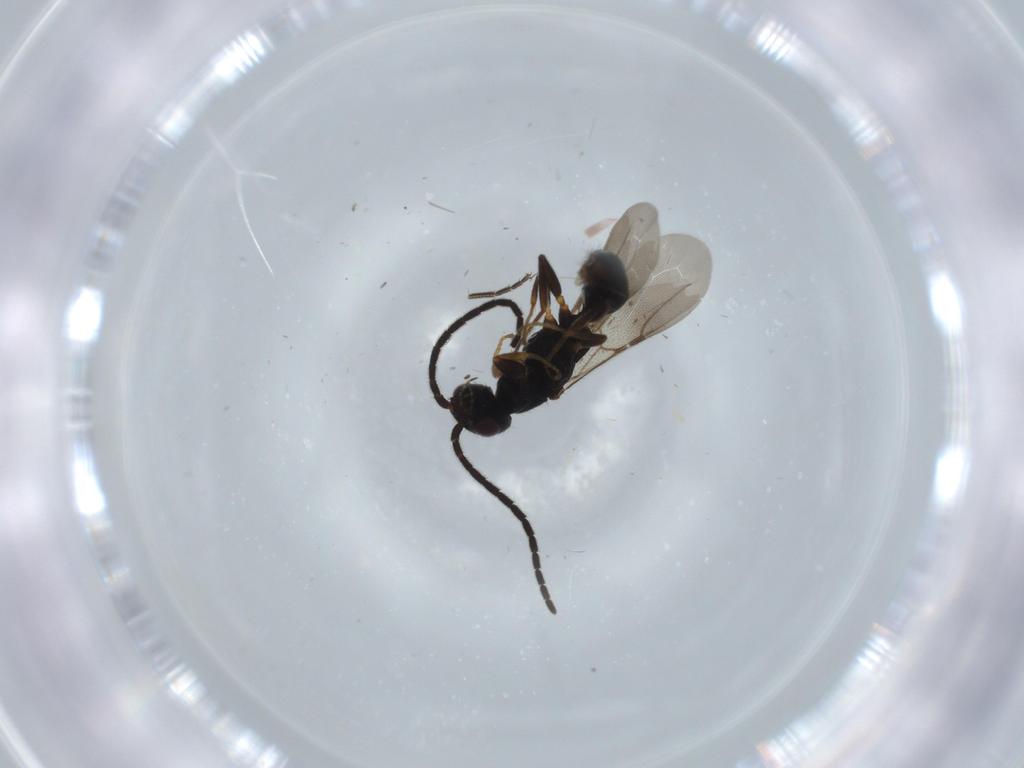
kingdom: Animalia
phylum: Arthropoda
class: Insecta
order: Hymenoptera
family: Bethylidae
